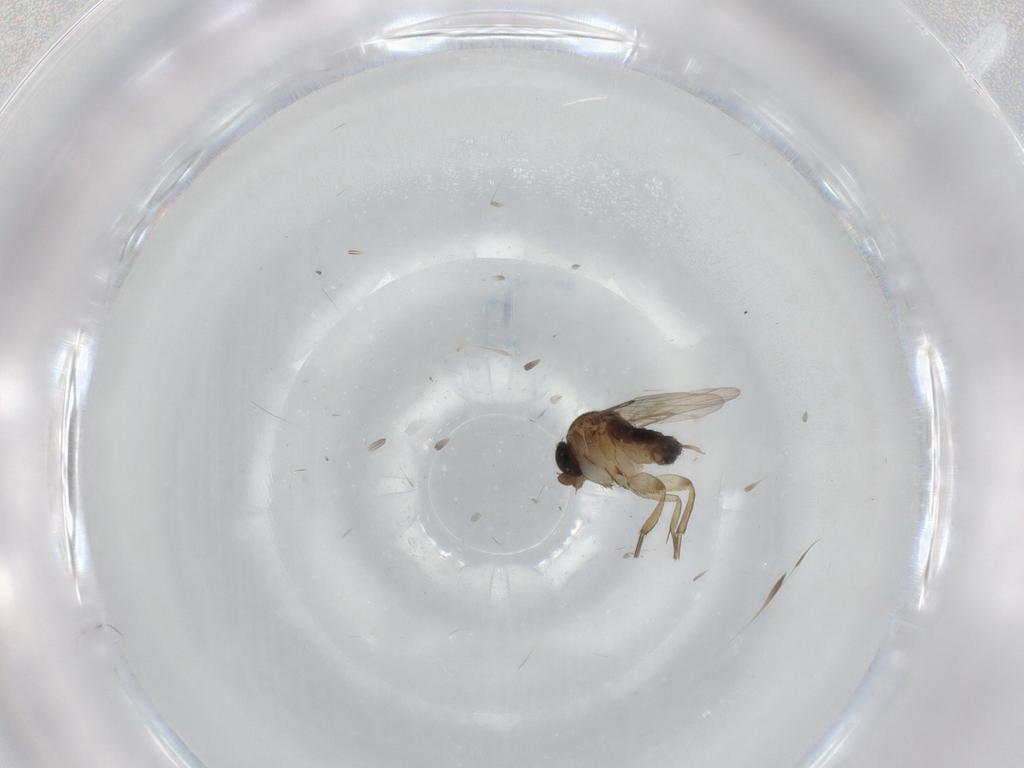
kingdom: Animalia
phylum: Arthropoda
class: Insecta
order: Diptera
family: Phoridae
